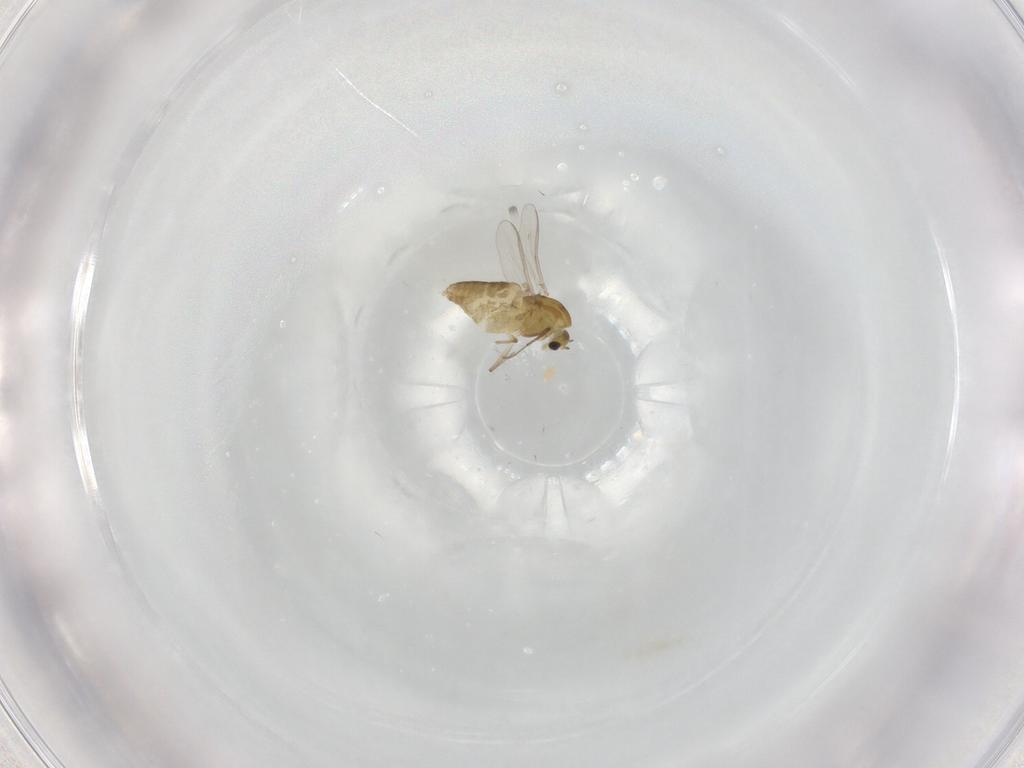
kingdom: Animalia
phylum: Arthropoda
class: Insecta
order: Diptera
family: Chironomidae
